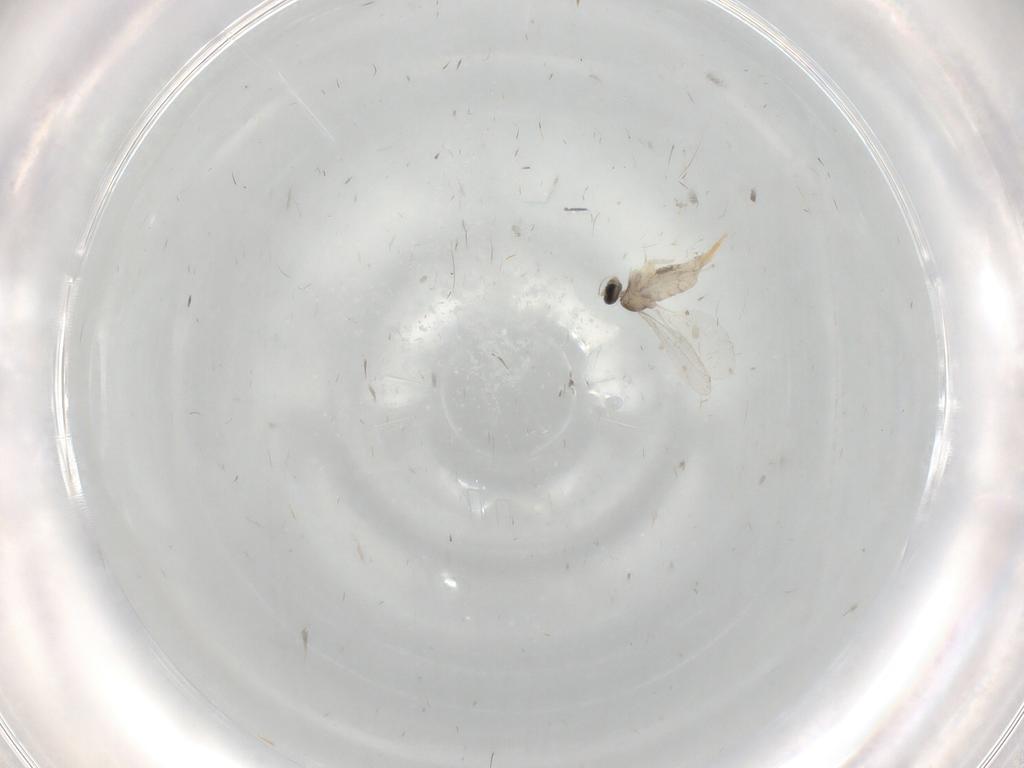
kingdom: Animalia
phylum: Arthropoda
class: Insecta
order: Diptera
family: Cecidomyiidae
